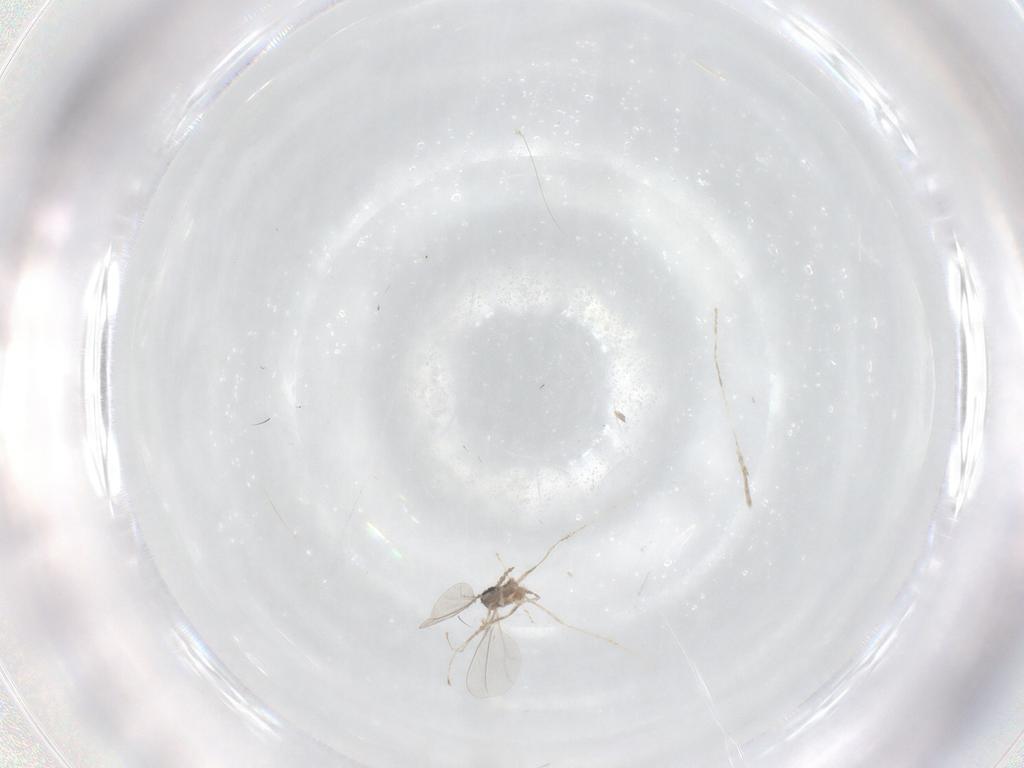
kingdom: Animalia
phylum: Arthropoda
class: Insecta
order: Diptera
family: Cecidomyiidae
